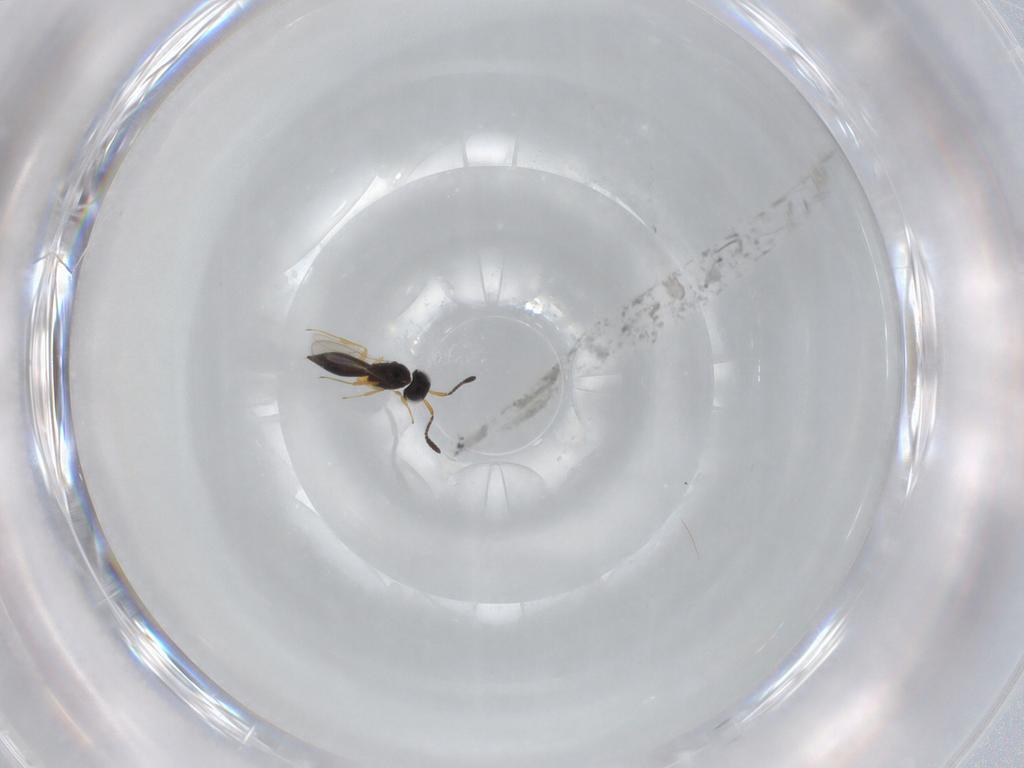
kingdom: Animalia
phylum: Arthropoda
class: Insecta
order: Hymenoptera
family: Scelionidae
